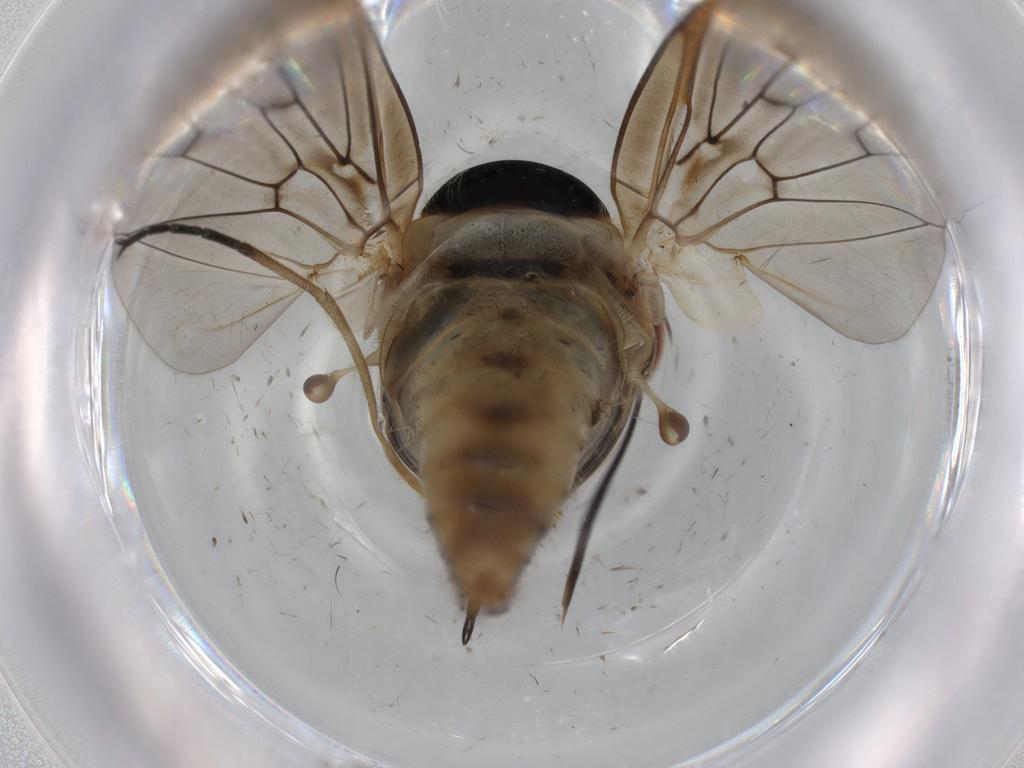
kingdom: Animalia
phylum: Arthropoda
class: Insecta
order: Diptera
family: Bombyliidae
